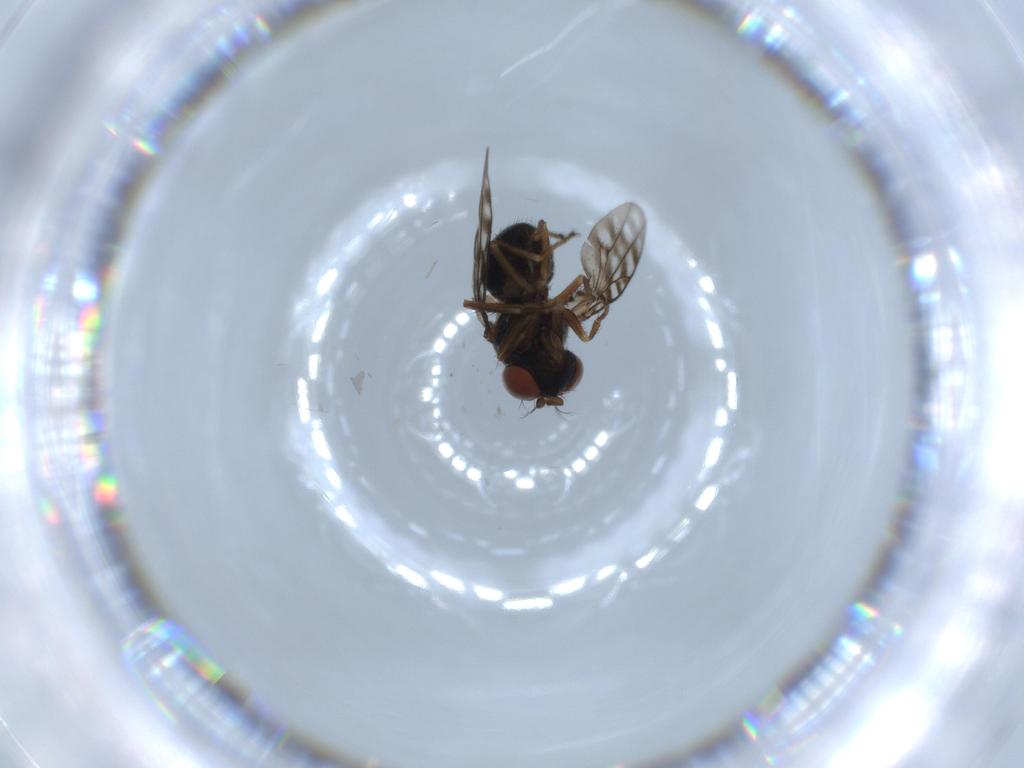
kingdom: Animalia
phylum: Arthropoda
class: Insecta
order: Diptera
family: Ephydridae
